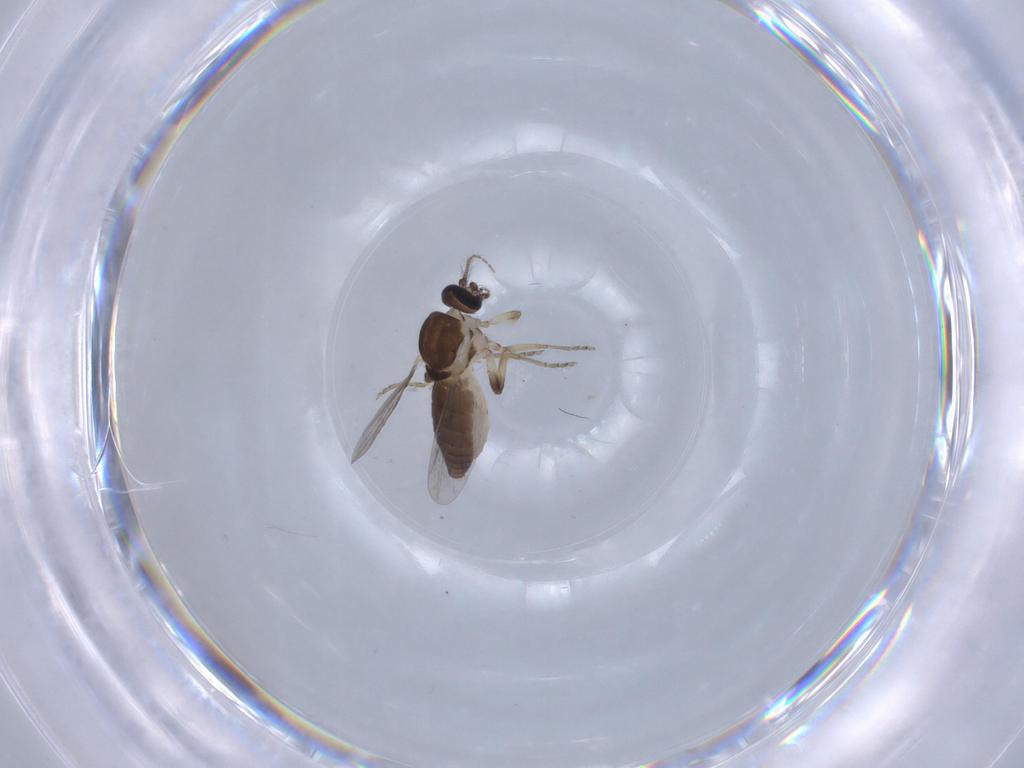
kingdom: Animalia
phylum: Arthropoda
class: Insecta
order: Diptera
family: Ceratopogonidae
